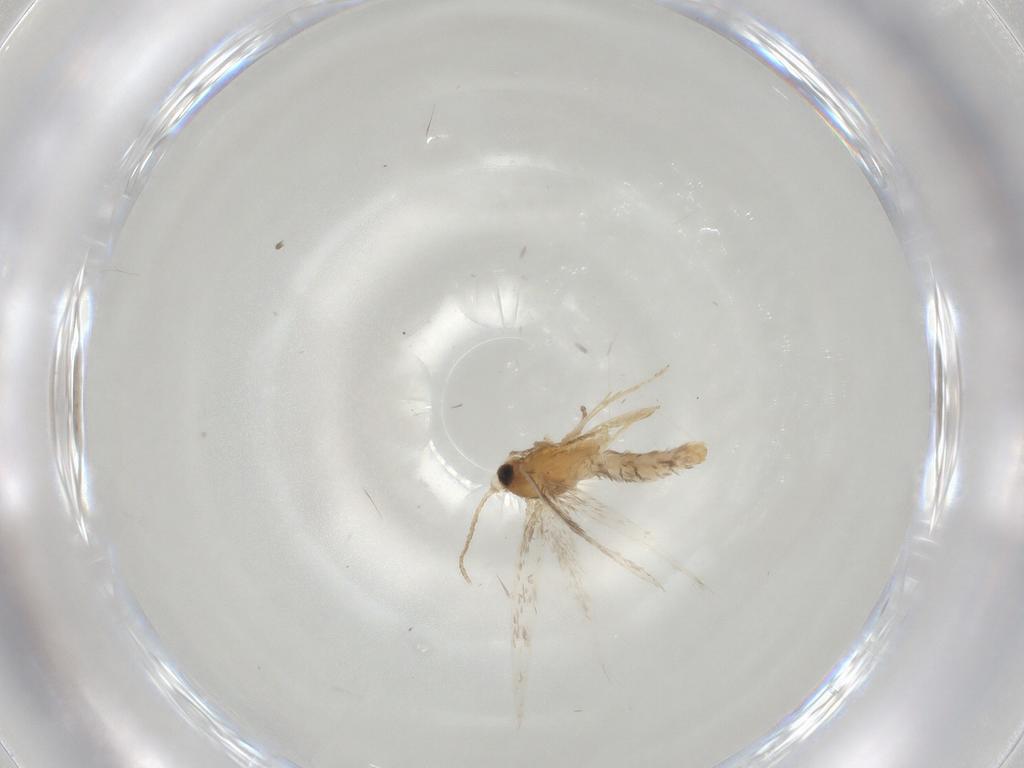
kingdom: Animalia
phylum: Arthropoda
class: Insecta
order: Lepidoptera
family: Nepticulidae
